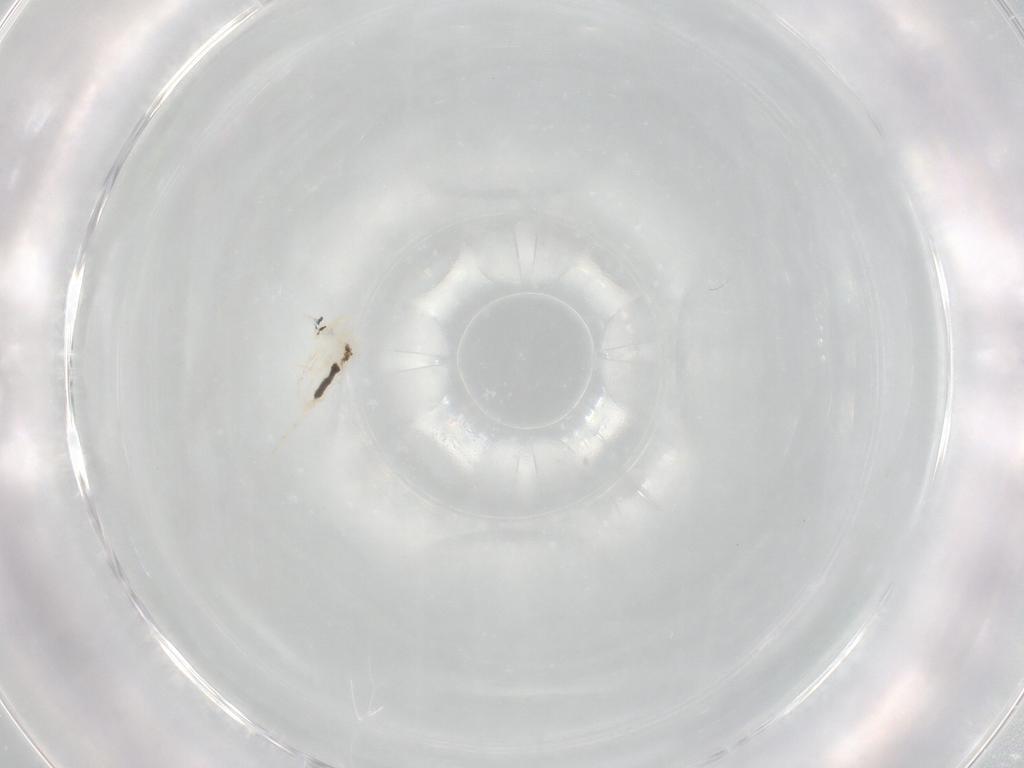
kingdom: Animalia
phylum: Arthropoda
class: Collembola
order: Entomobryomorpha
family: Entomobryidae
